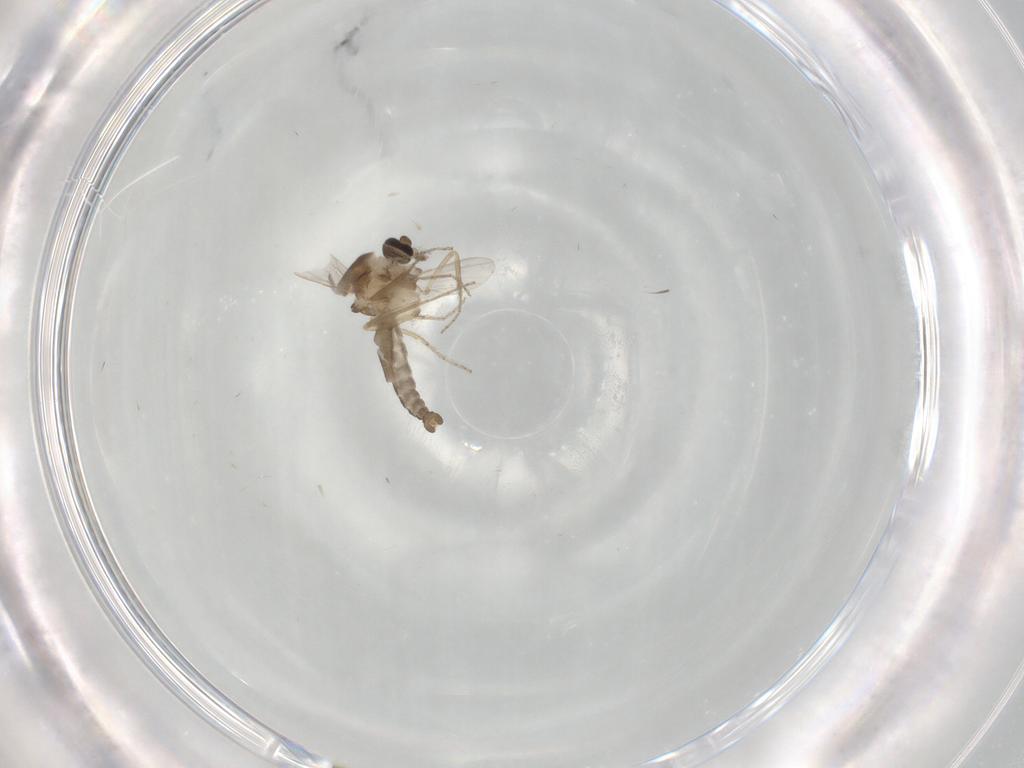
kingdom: Animalia
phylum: Arthropoda
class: Insecta
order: Diptera
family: Ceratopogonidae
